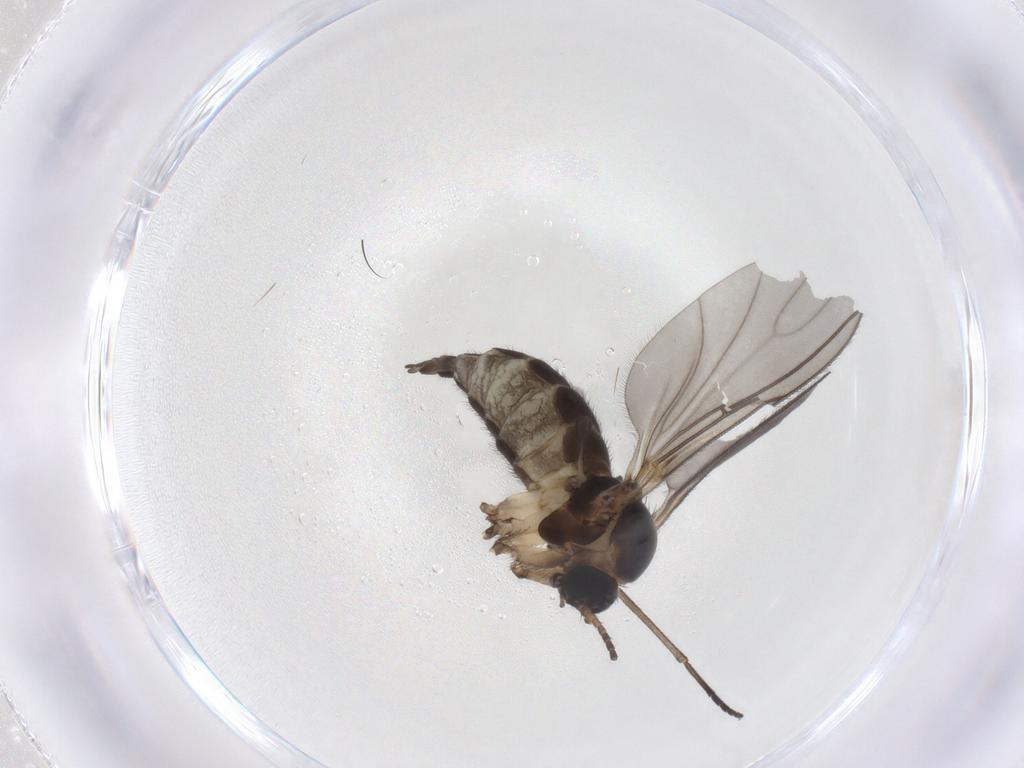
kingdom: Animalia
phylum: Arthropoda
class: Insecta
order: Diptera
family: Sciaridae
